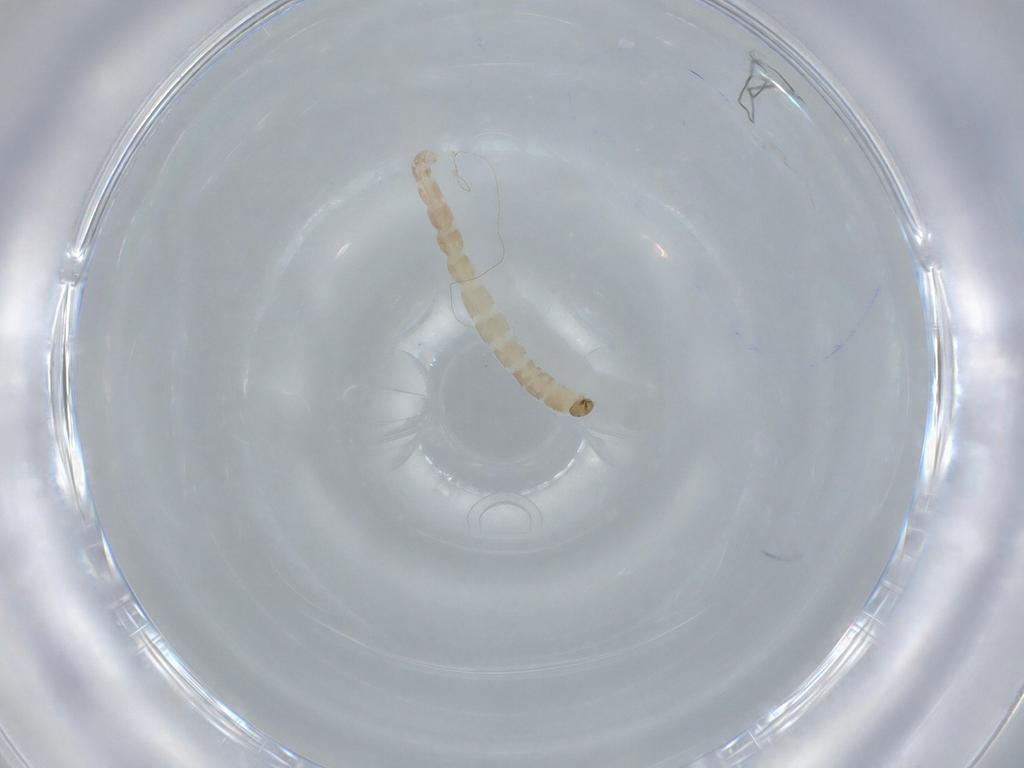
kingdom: Animalia
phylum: Arthropoda
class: Insecta
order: Diptera
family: Chironomidae
